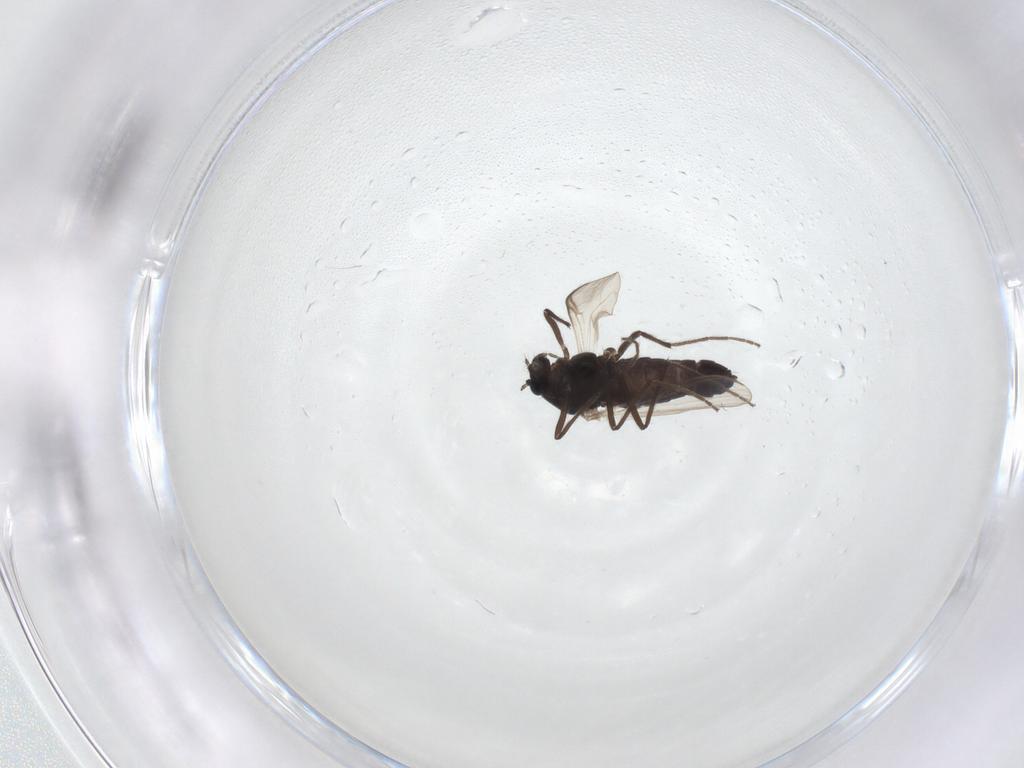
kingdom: Animalia
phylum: Arthropoda
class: Insecta
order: Diptera
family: Chironomidae
